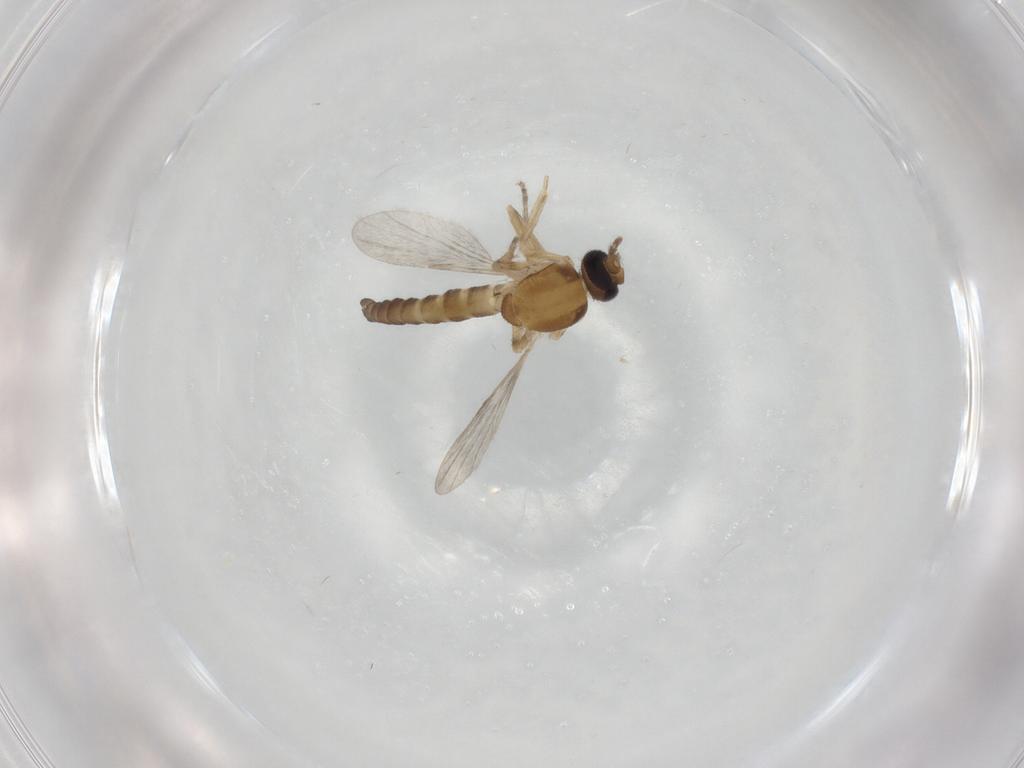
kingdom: Animalia
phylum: Arthropoda
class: Insecta
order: Diptera
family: Ceratopogonidae
